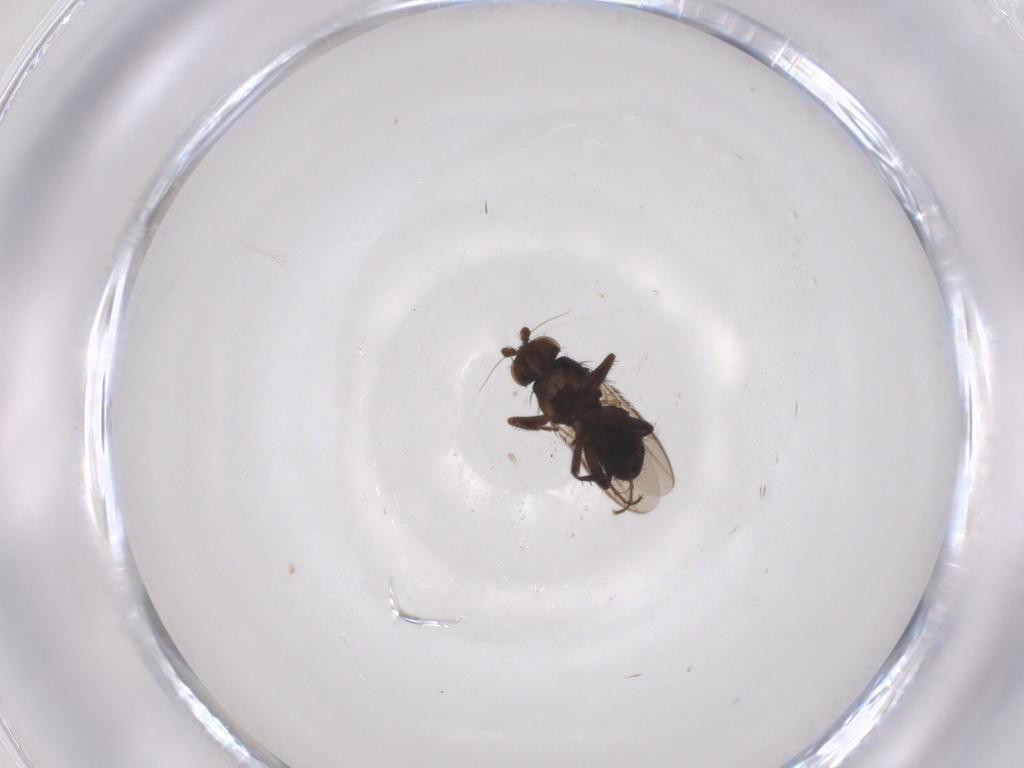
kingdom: Animalia
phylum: Arthropoda
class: Insecta
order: Diptera
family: Sphaeroceridae
